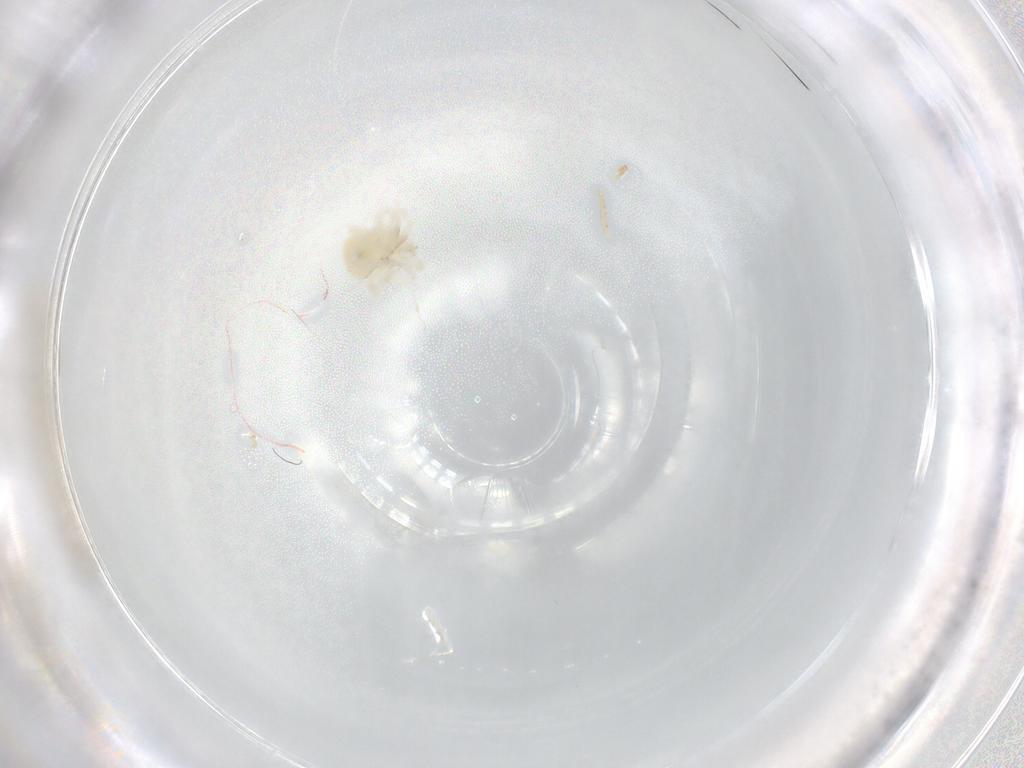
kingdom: Animalia
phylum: Arthropoda
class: Arachnida
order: Trombidiformes
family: Anystidae
